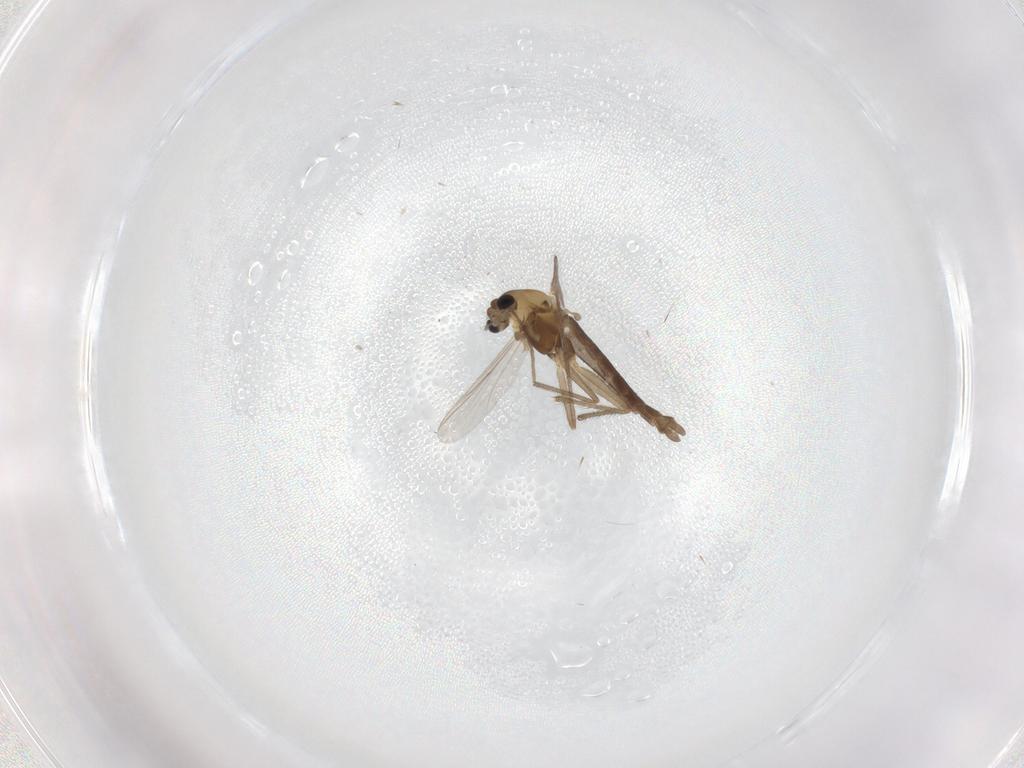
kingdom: Animalia
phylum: Arthropoda
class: Insecta
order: Diptera
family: Chironomidae
